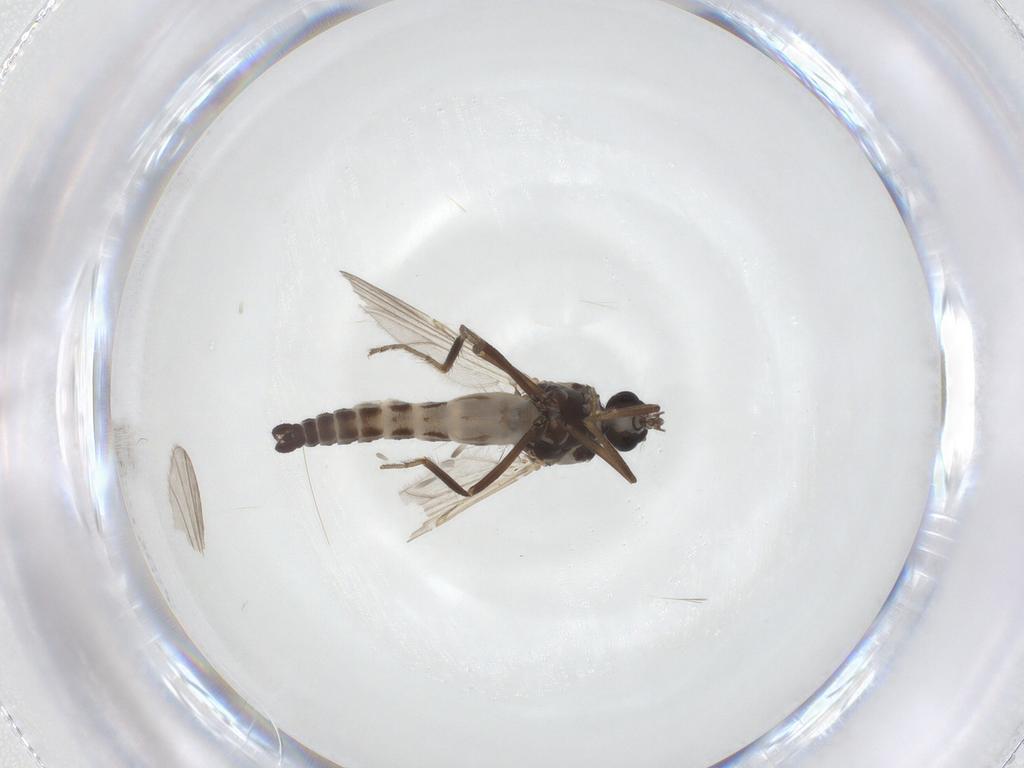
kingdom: Animalia
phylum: Arthropoda
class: Insecta
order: Diptera
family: Ceratopogonidae
